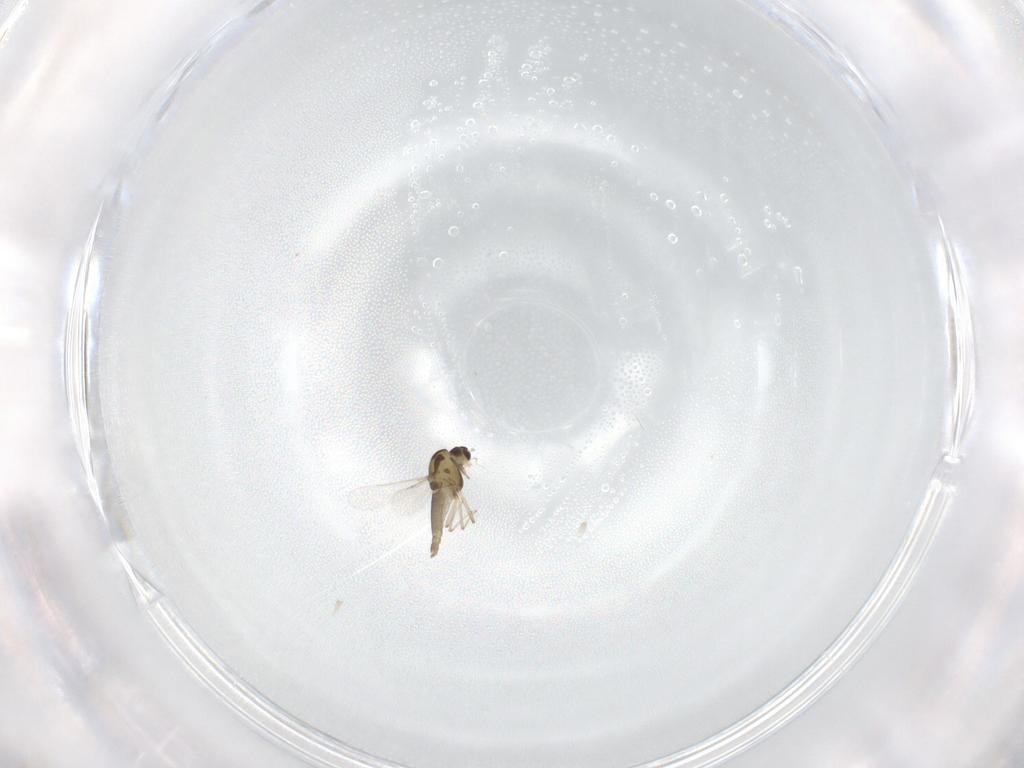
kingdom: Animalia
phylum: Arthropoda
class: Insecta
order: Diptera
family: Chironomidae
